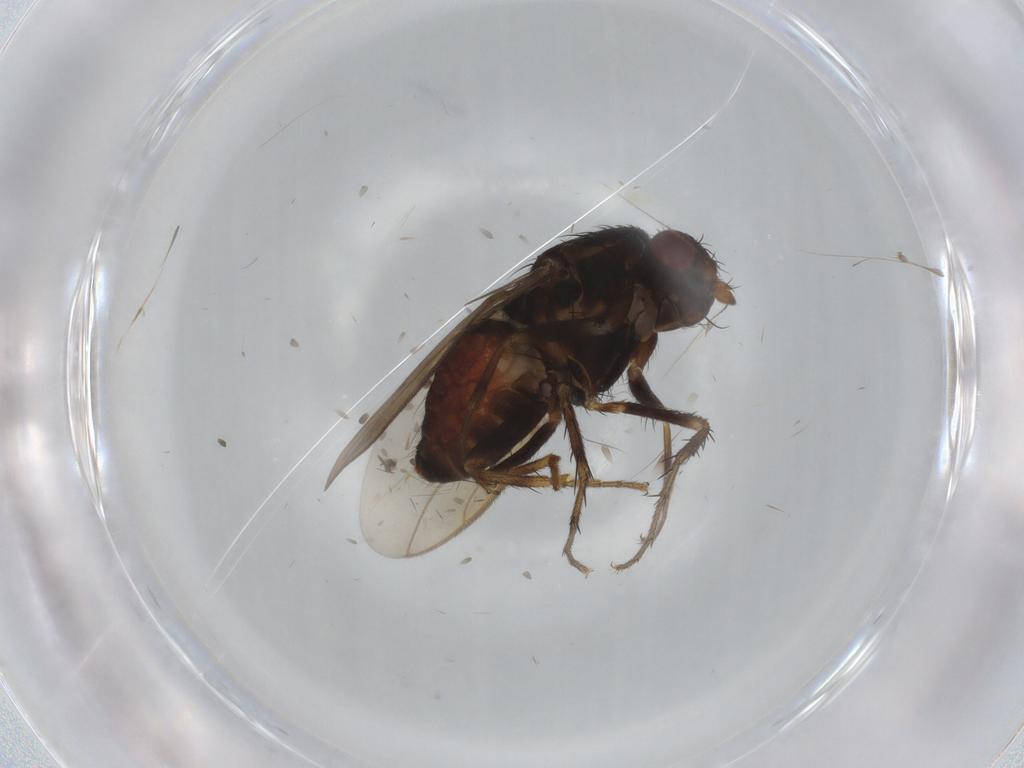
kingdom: Animalia
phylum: Arthropoda
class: Insecta
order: Diptera
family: Sphaeroceridae
